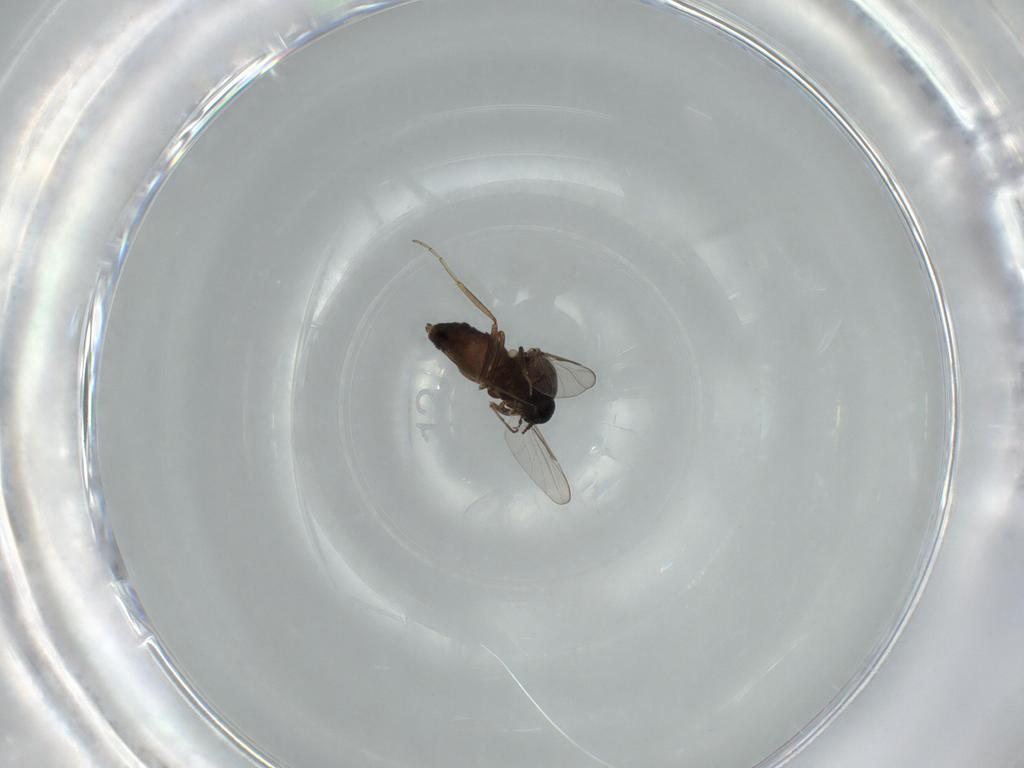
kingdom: Animalia
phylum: Arthropoda
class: Insecta
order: Diptera
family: Chironomidae
